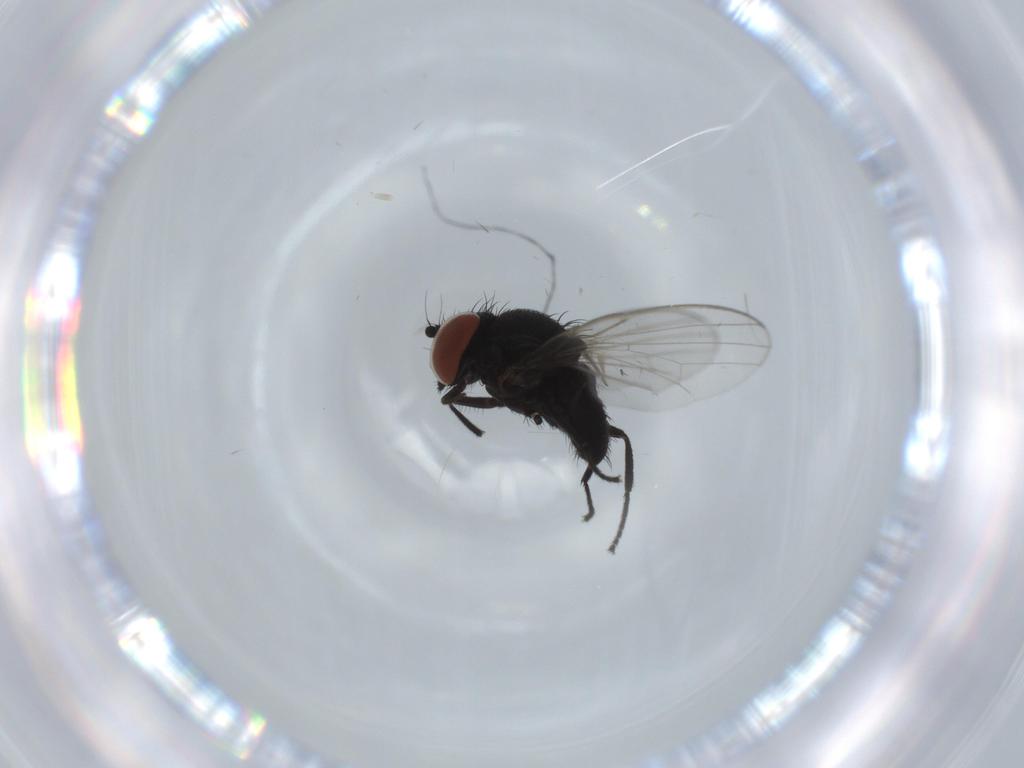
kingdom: Animalia
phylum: Arthropoda
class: Insecta
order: Diptera
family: Milichiidae
